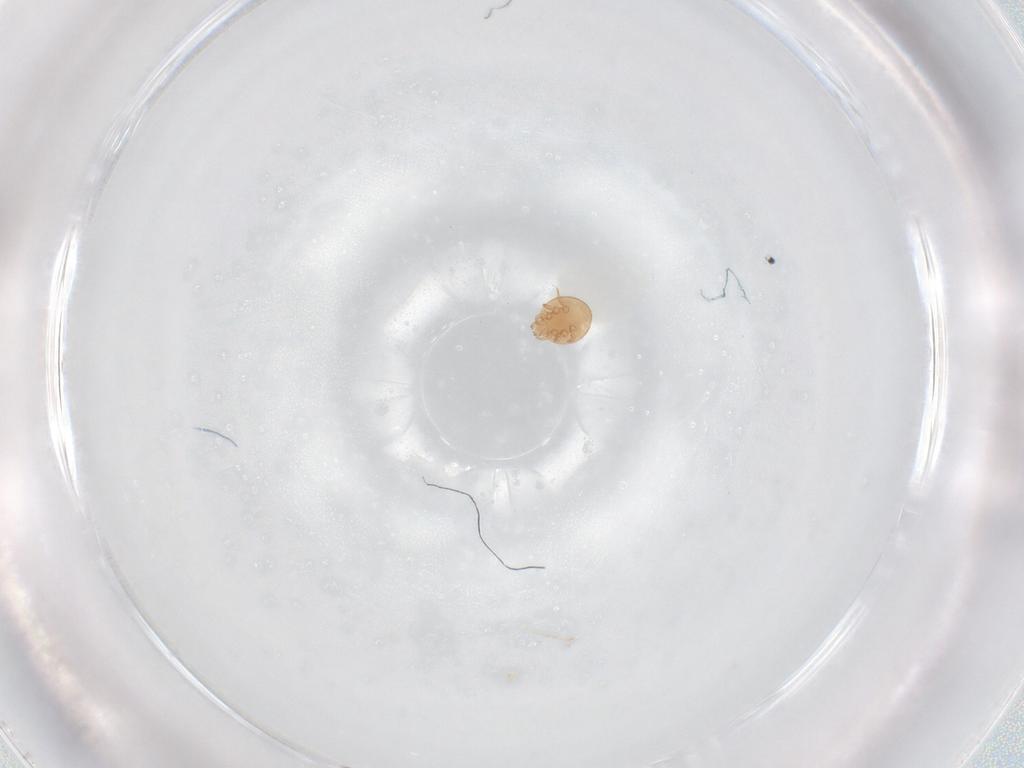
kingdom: Animalia
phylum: Arthropoda
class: Arachnida
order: Mesostigmata
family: Trematuridae
